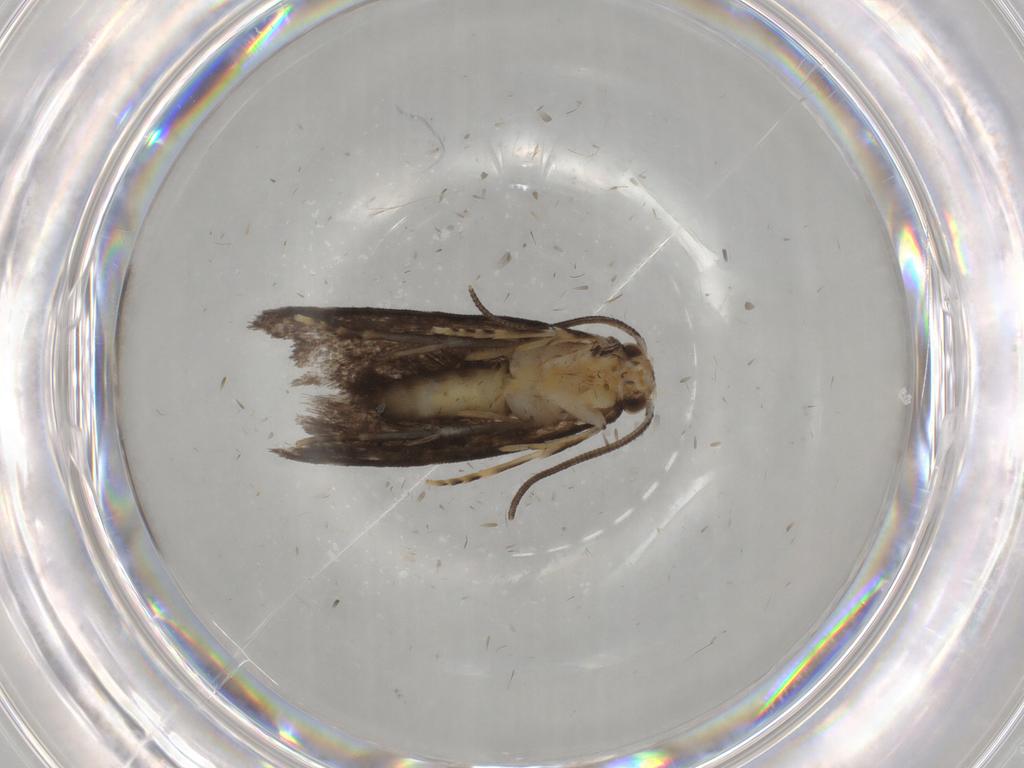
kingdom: Animalia
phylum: Arthropoda
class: Insecta
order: Lepidoptera
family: Dryadaulidae
